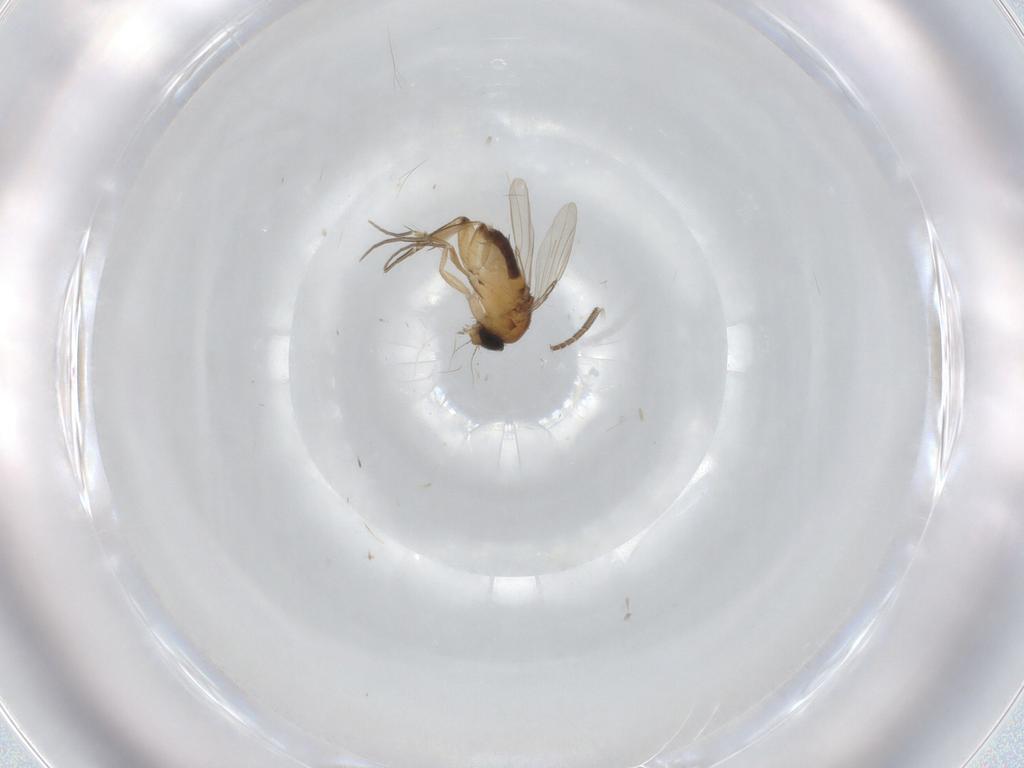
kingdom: Animalia
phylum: Arthropoda
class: Insecta
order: Diptera
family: Phoridae
